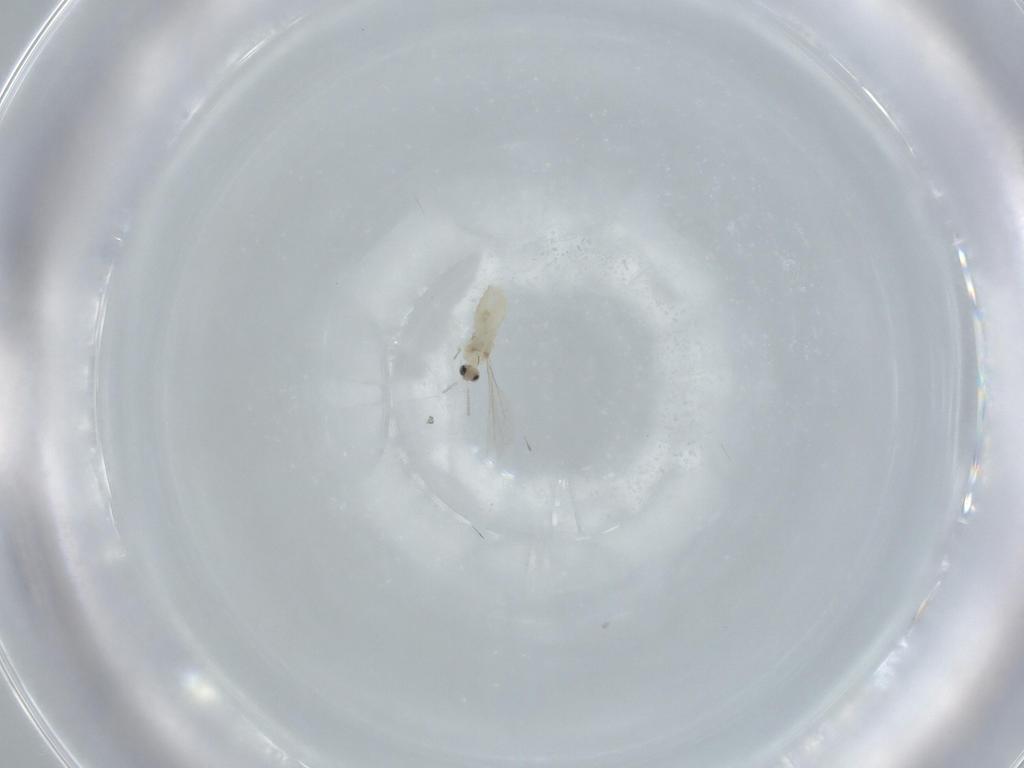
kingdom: Animalia
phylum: Arthropoda
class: Insecta
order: Diptera
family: Cecidomyiidae
